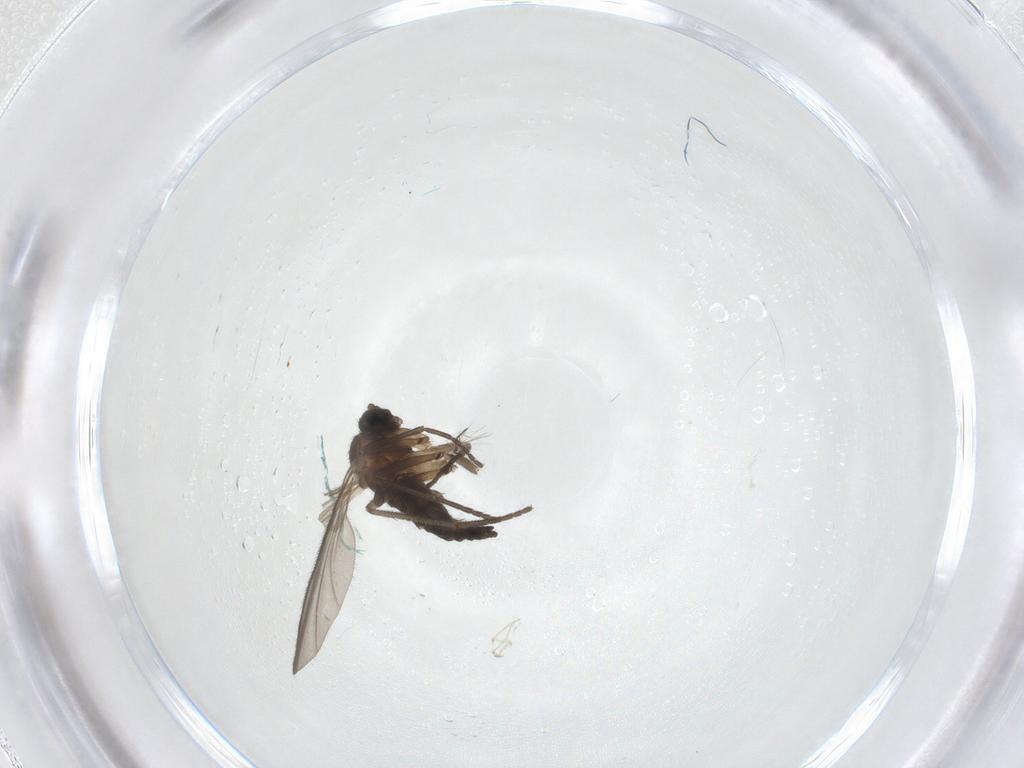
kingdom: Animalia
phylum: Arthropoda
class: Insecta
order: Diptera
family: Sciaridae
